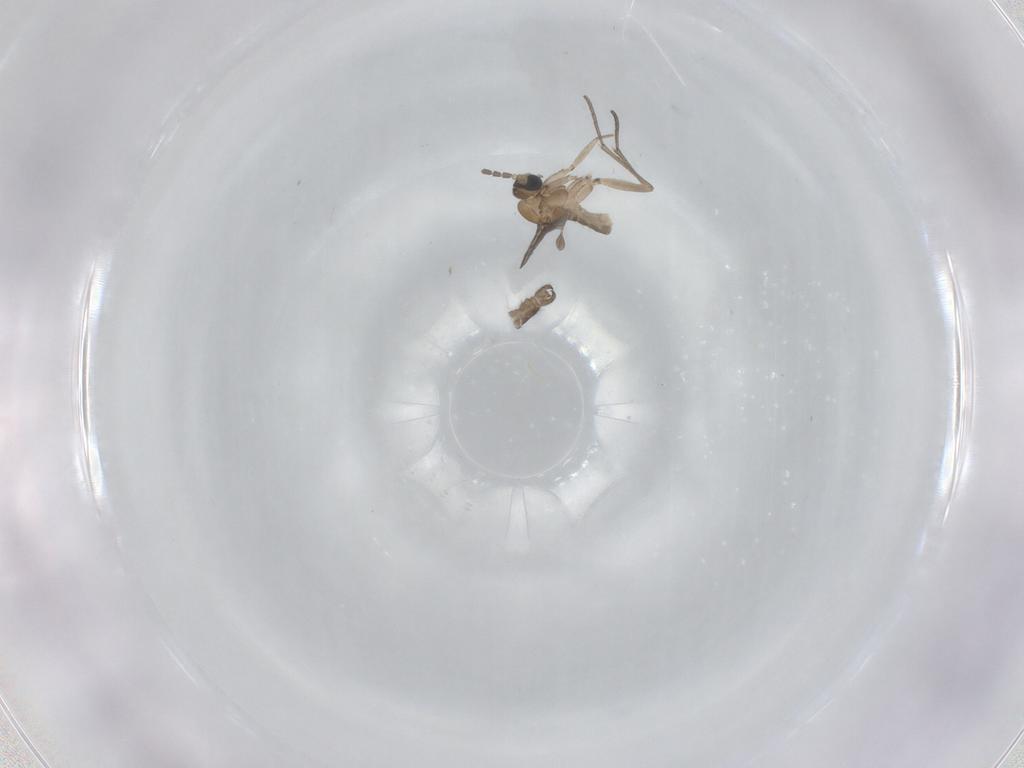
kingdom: Animalia
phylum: Arthropoda
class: Insecta
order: Diptera
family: Sciaridae
